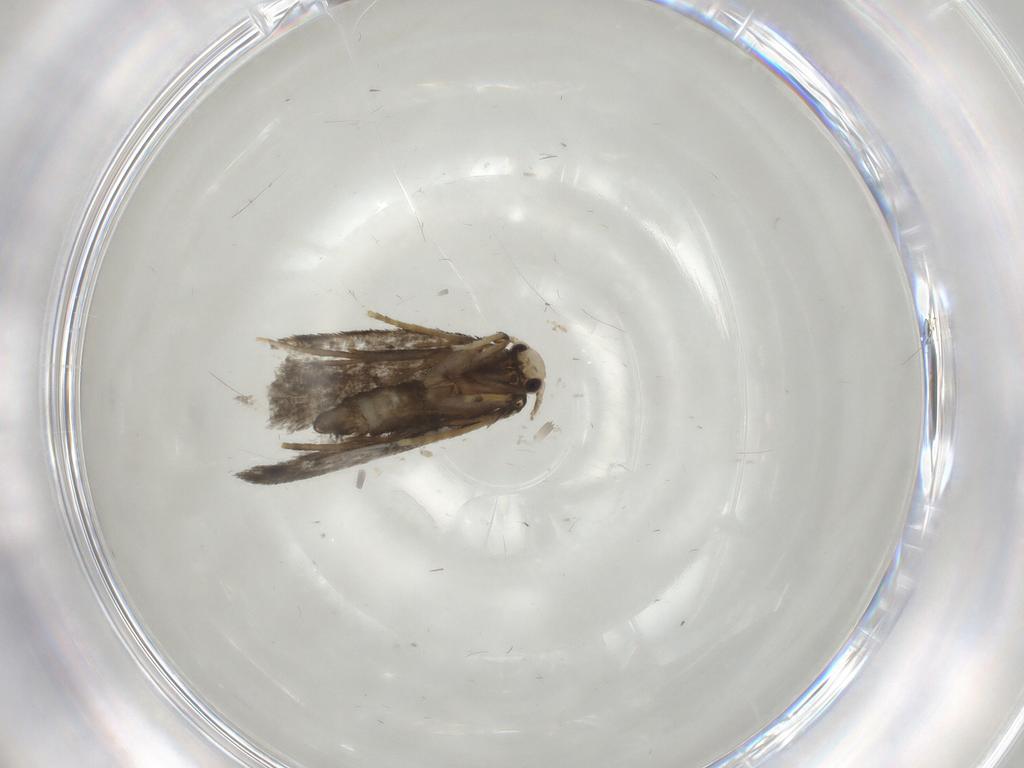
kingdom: Animalia
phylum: Arthropoda
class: Insecta
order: Lepidoptera
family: Psychidae
